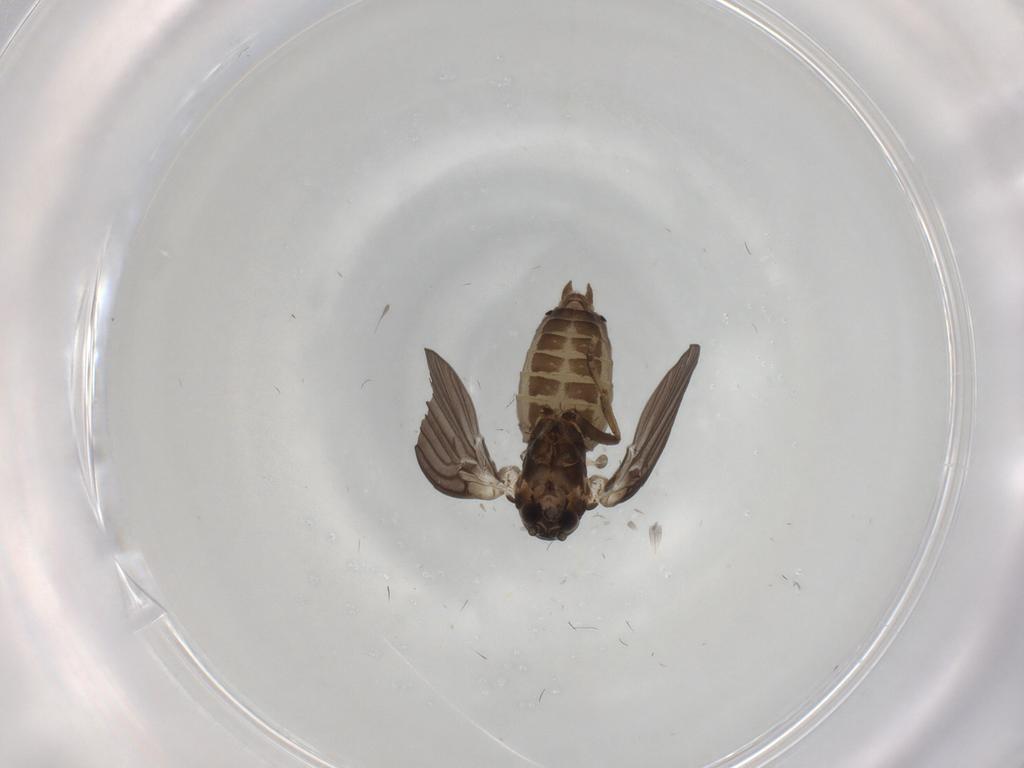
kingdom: Animalia
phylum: Arthropoda
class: Insecta
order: Diptera
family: Psychodidae
